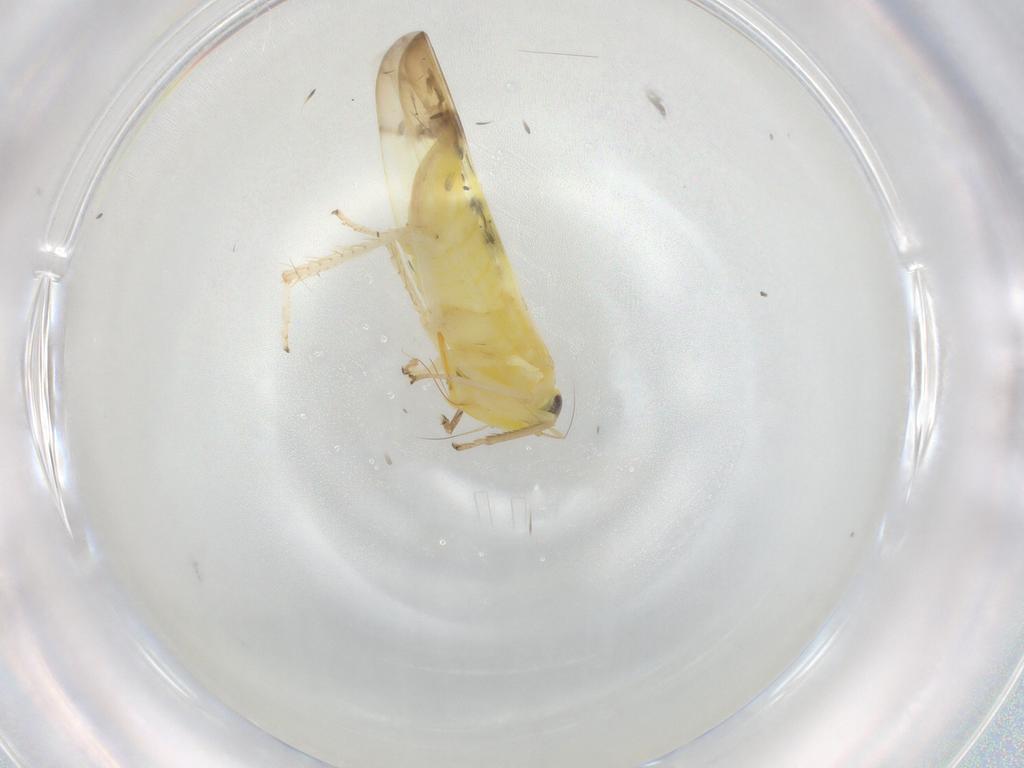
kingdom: Animalia
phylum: Arthropoda
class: Insecta
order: Hemiptera
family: Cicadellidae
